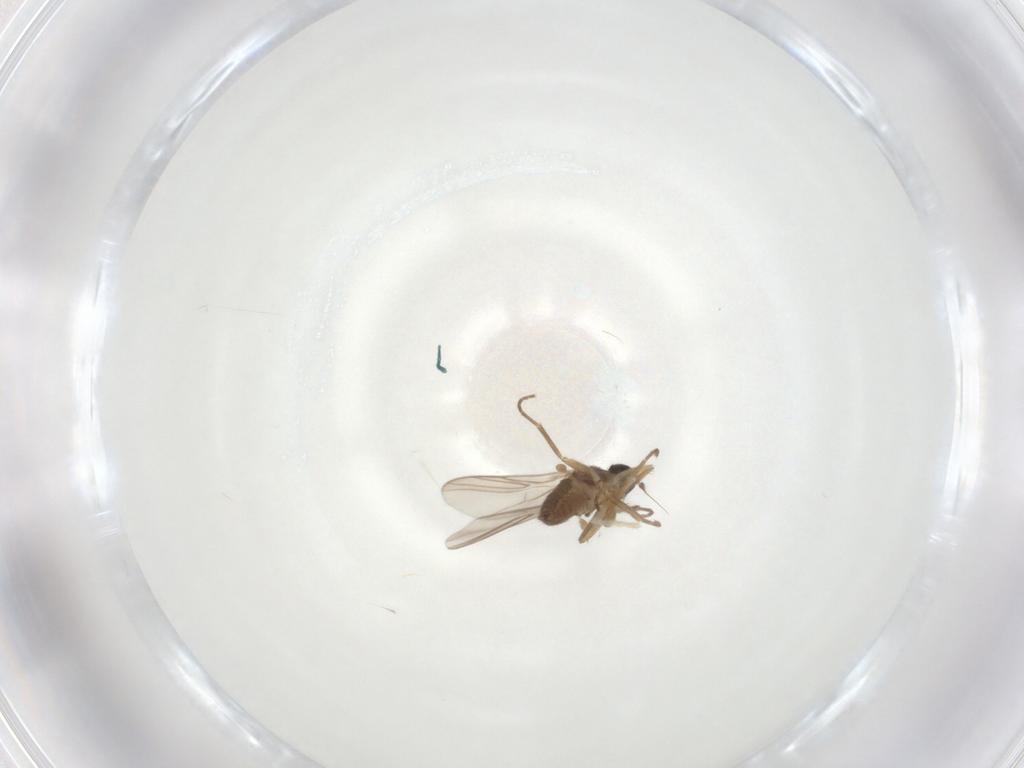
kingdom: Animalia
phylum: Arthropoda
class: Insecta
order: Diptera
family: Hybotidae
